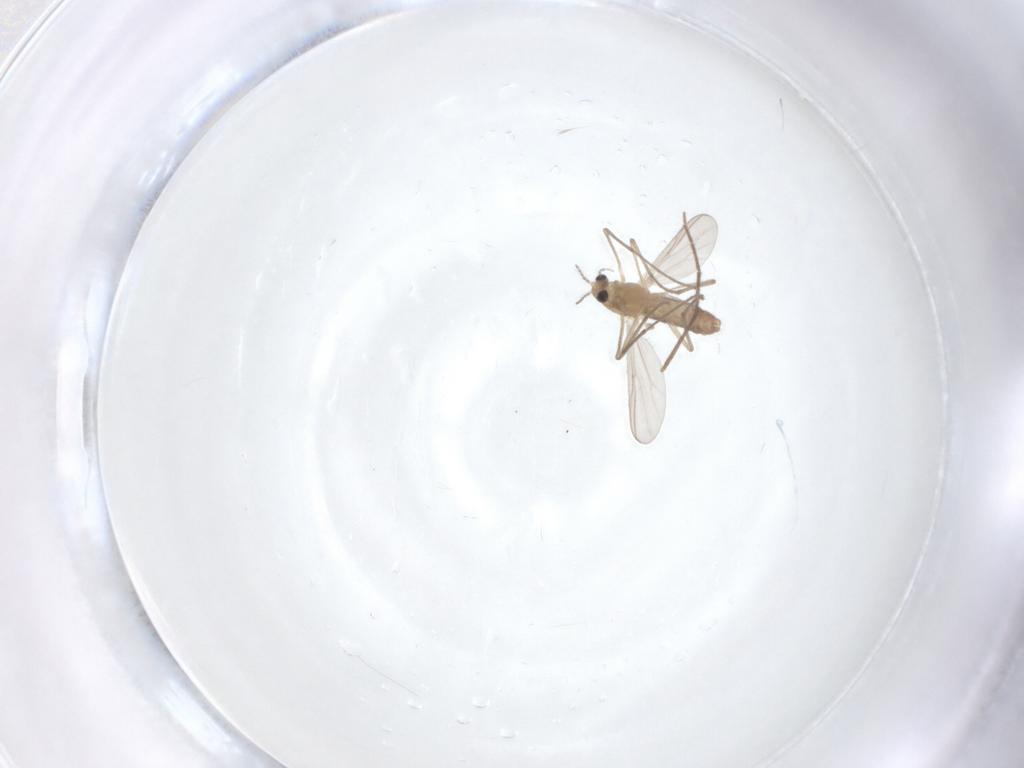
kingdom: Animalia
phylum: Arthropoda
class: Insecta
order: Diptera
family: Chironomidae
